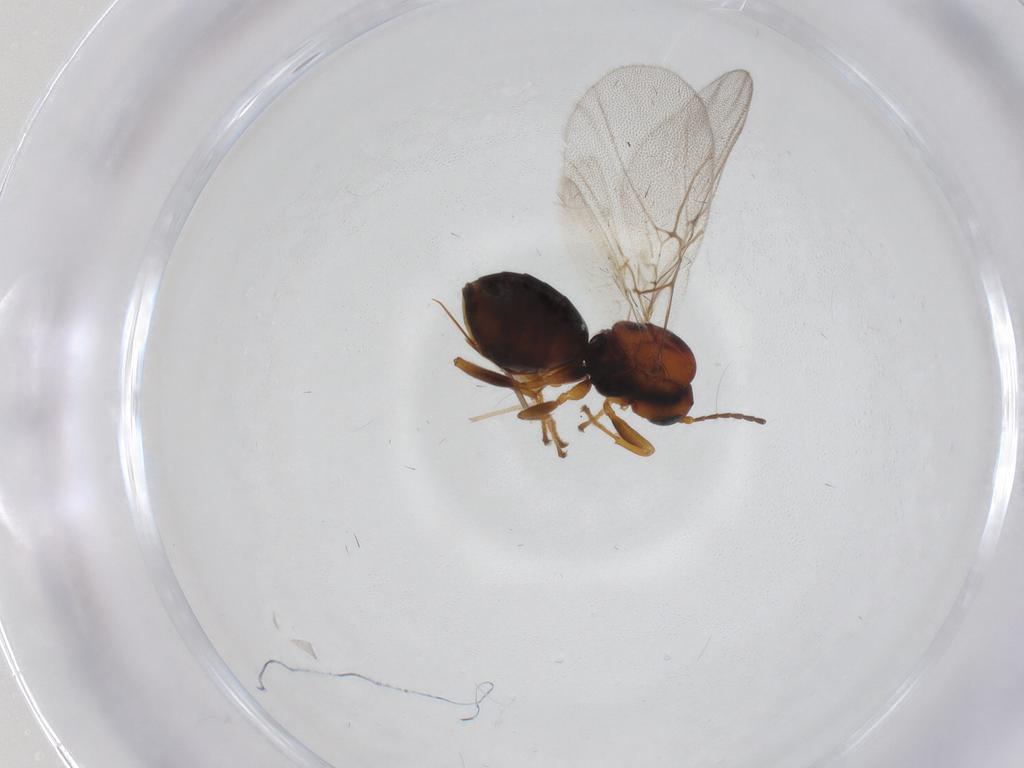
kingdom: Animalia
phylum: Arthropoda
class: Insecta
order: Hymenoptera
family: Cynipidae
